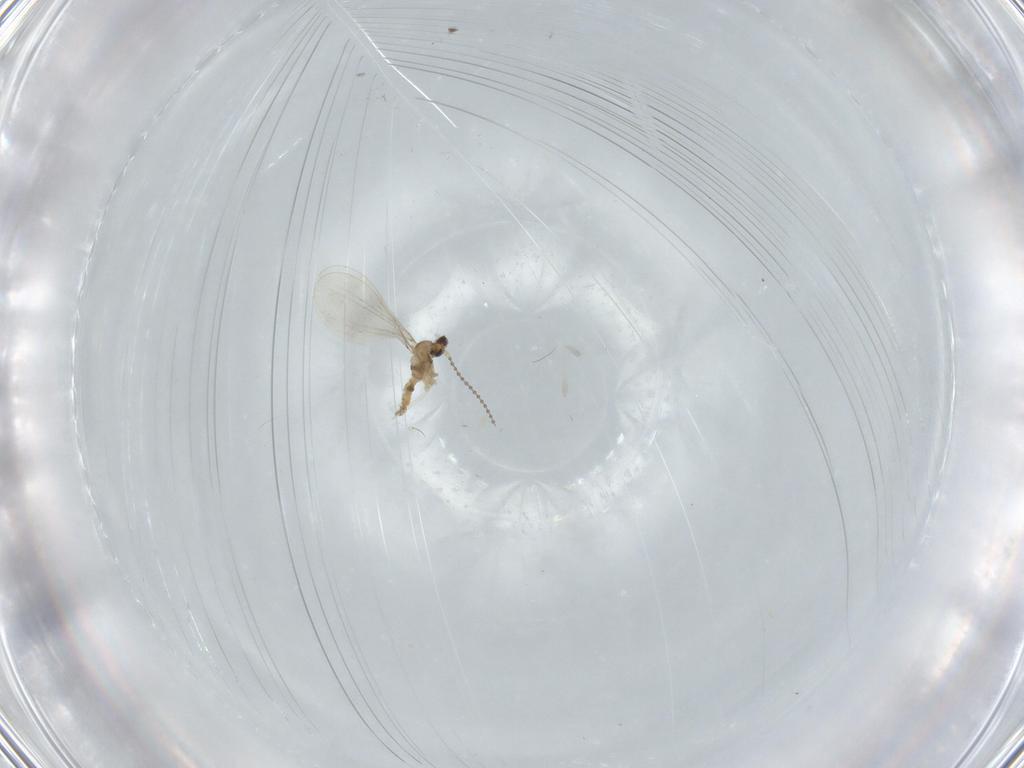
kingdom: Animalia
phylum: Arthropoda
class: Insecta
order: Diptera
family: Cecidomyiidae
